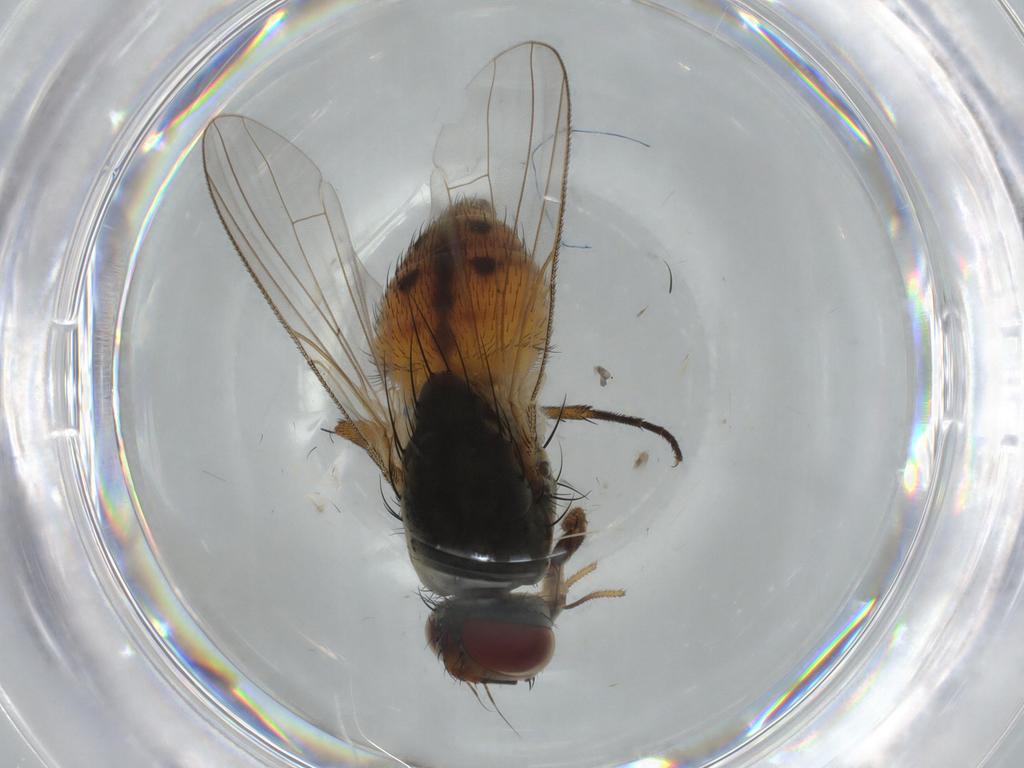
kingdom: Animalia
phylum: Arthropoda
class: Insecta
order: Diptera
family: Muscidae
